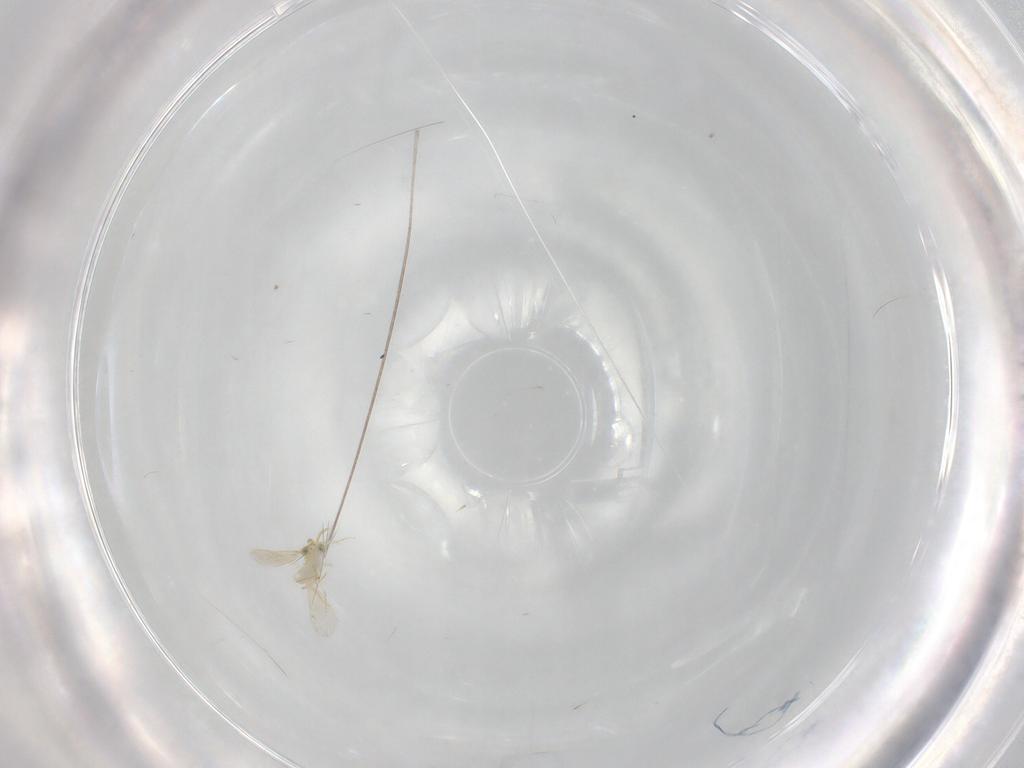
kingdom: Animalia
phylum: Arthropoda
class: Insecta
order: Hymenoptera
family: Aphelinidae
